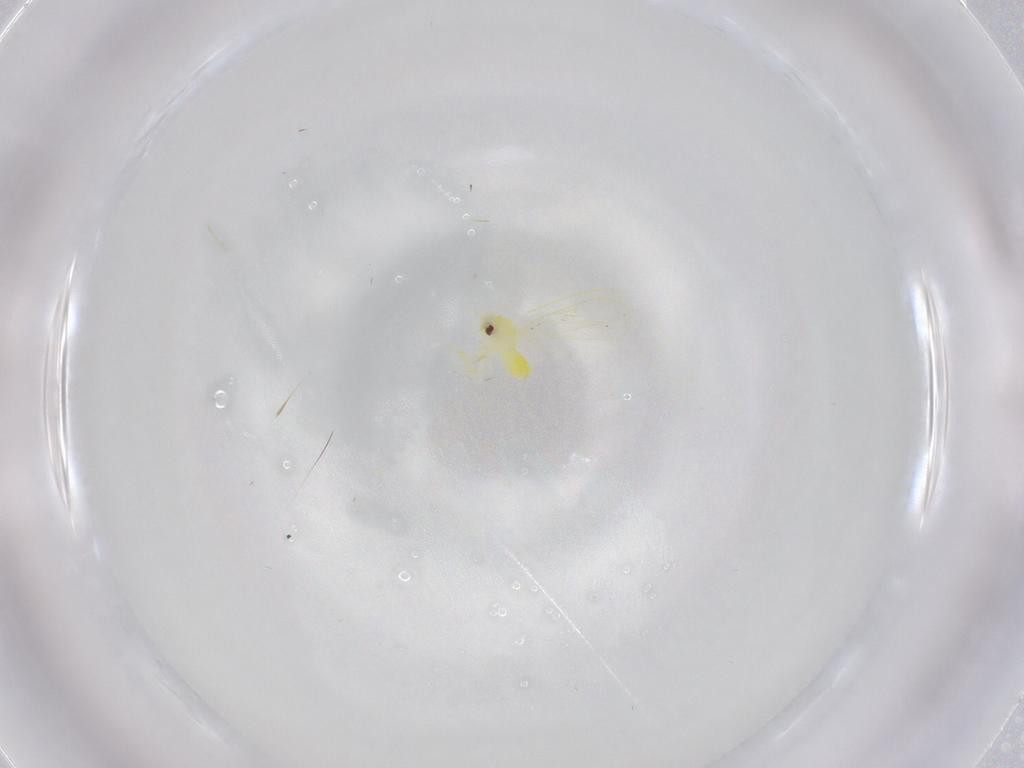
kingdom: Animalia
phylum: Arthropoda
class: Insecta
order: Hemiptera
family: Aleyrodidae
